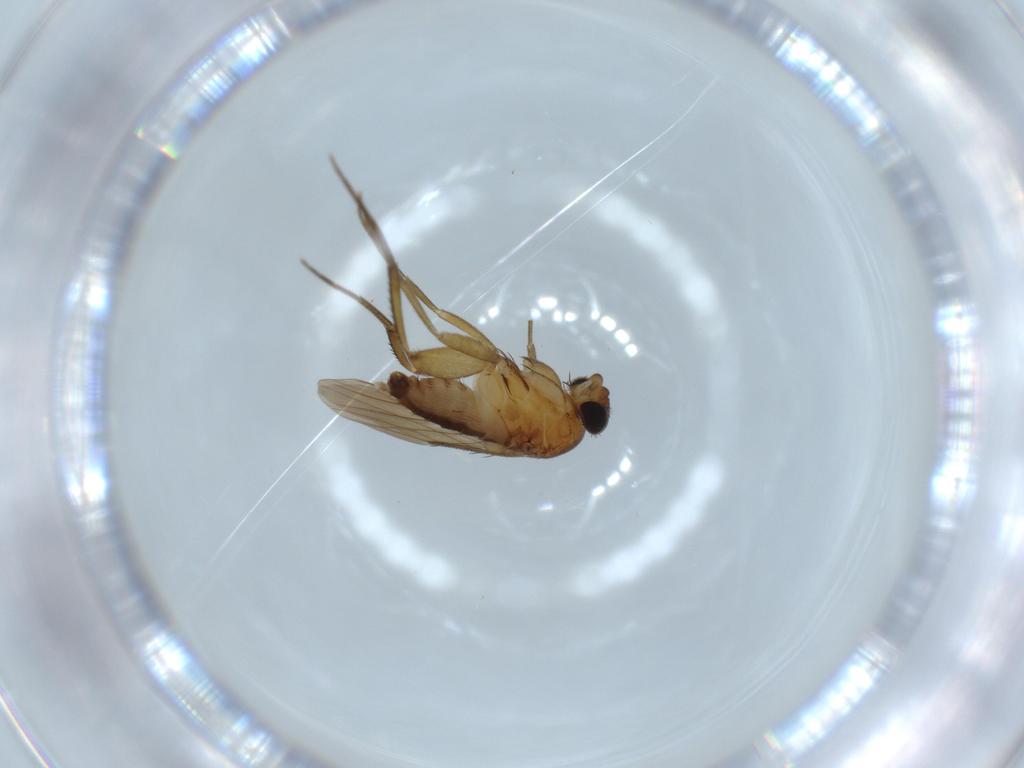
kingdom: Animalia
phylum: Arthropoda
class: Insecta
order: Diptera
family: Phoridae
